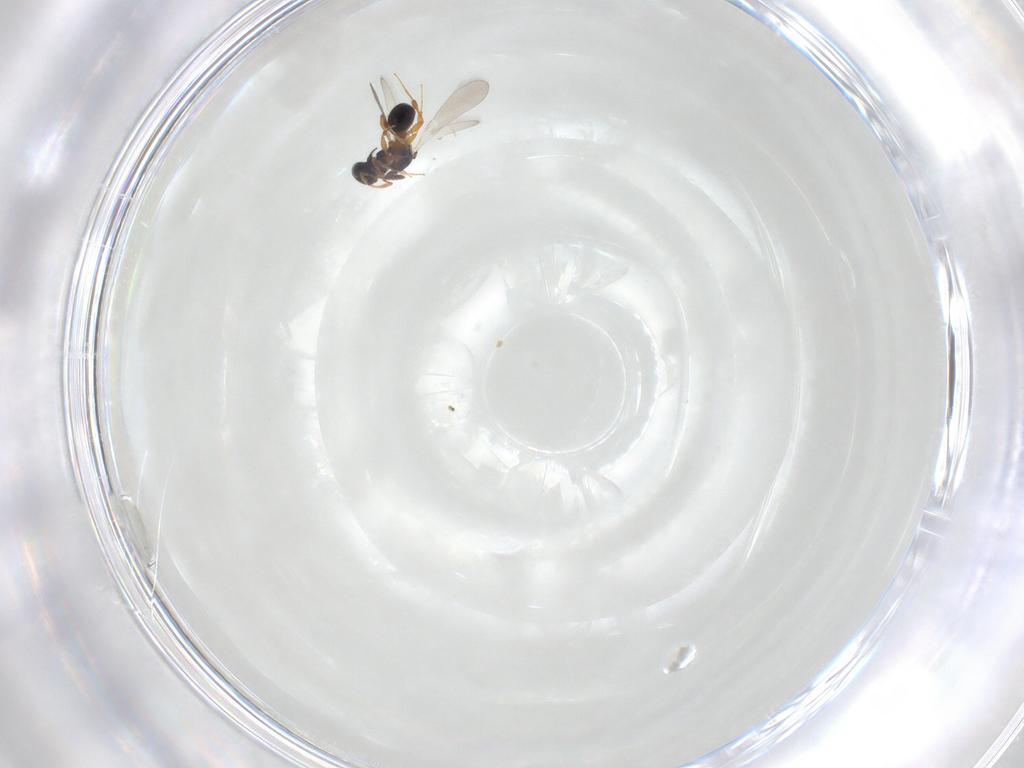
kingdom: Animalia
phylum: Arthropoda
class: Insecta
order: Hymenoptera
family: Platygastridae
